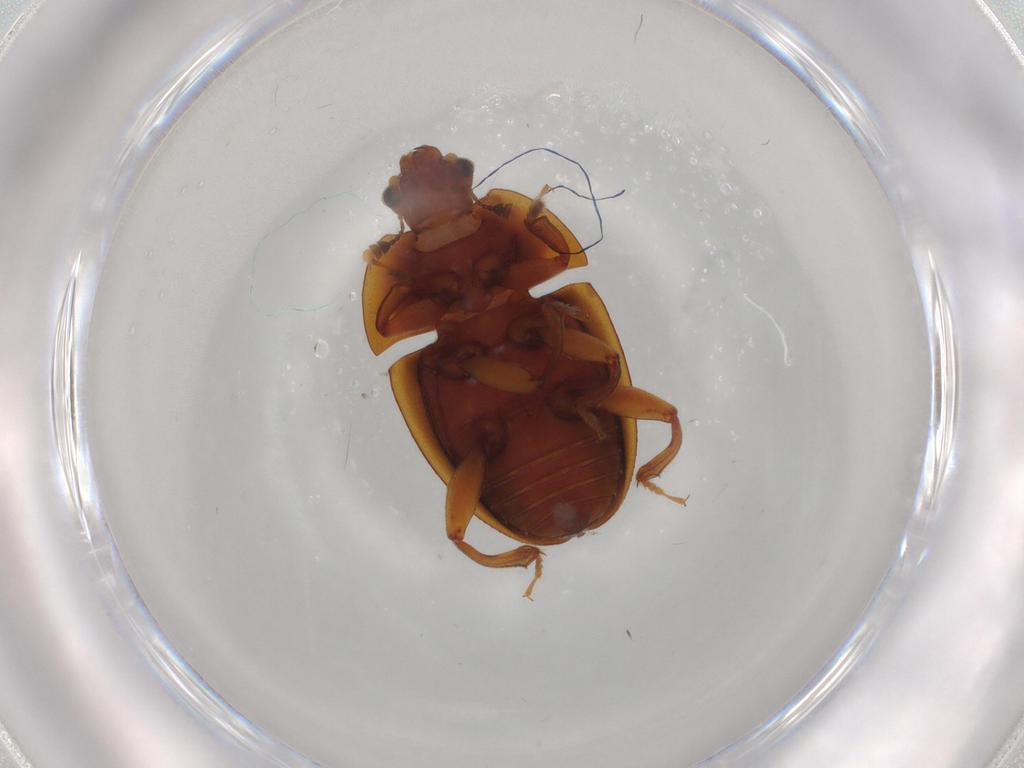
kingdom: Animalia
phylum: Arthropoda
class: Insecta
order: Coleoptera
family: Nitidulidae
